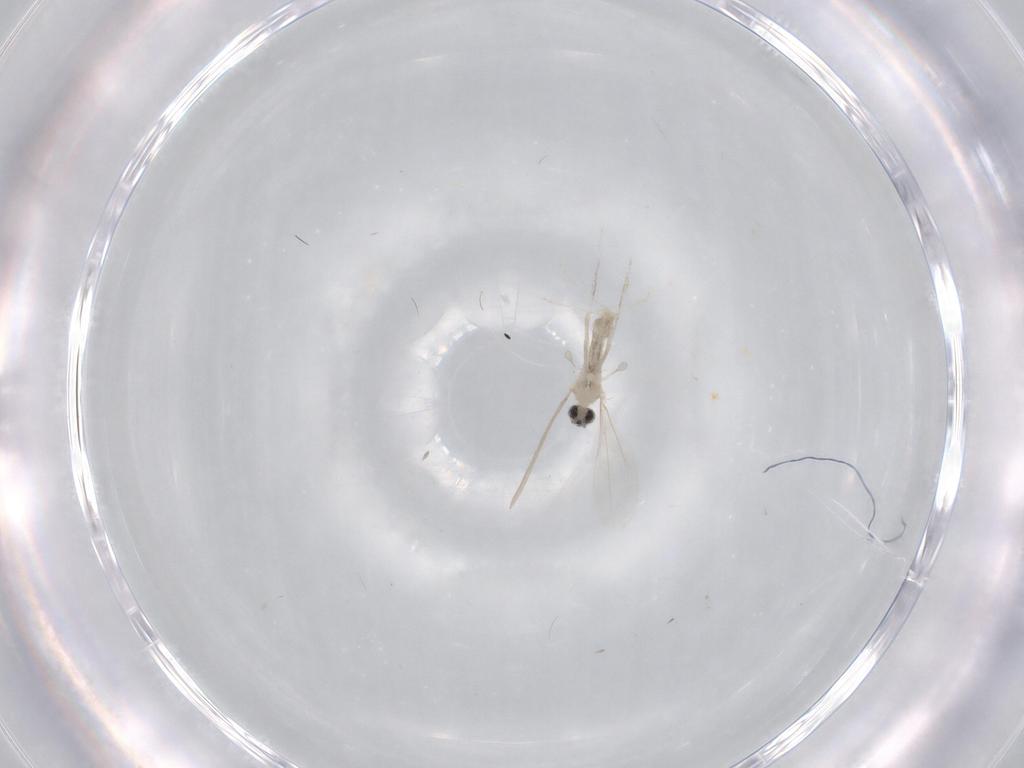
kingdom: Animalia
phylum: Arthropoda
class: Insecta
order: Diptera
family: Cecidomyiidae
